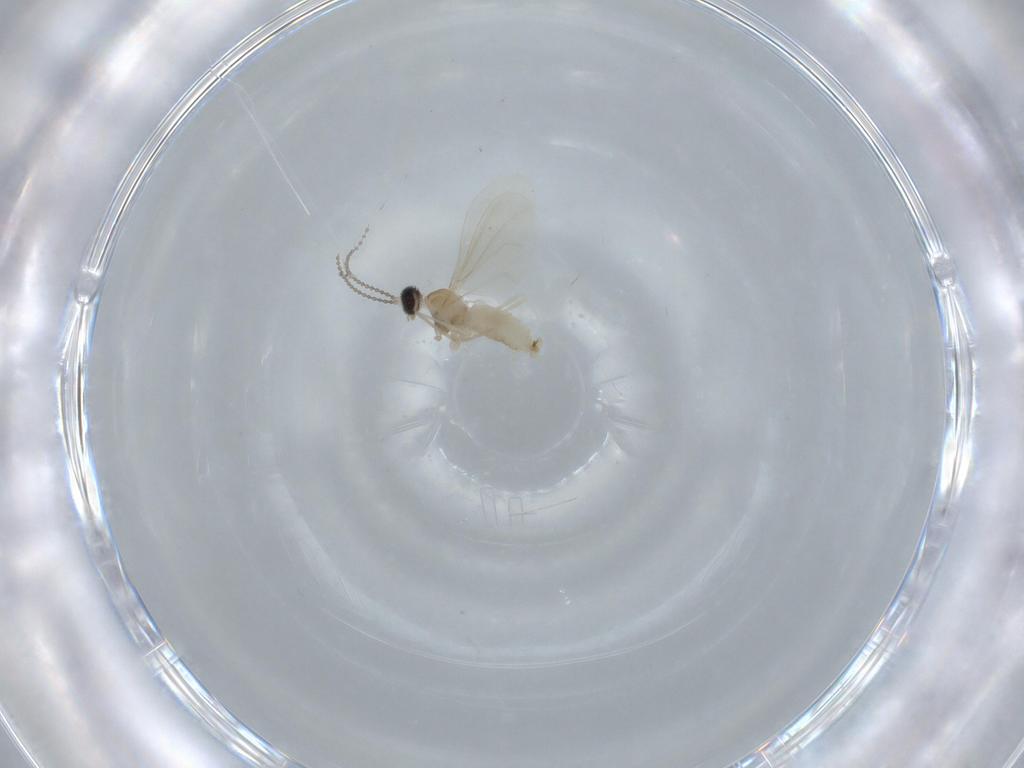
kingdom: Animalia
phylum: Arthropoda
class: Insecta
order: Diptera
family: Cecidomyiidae
